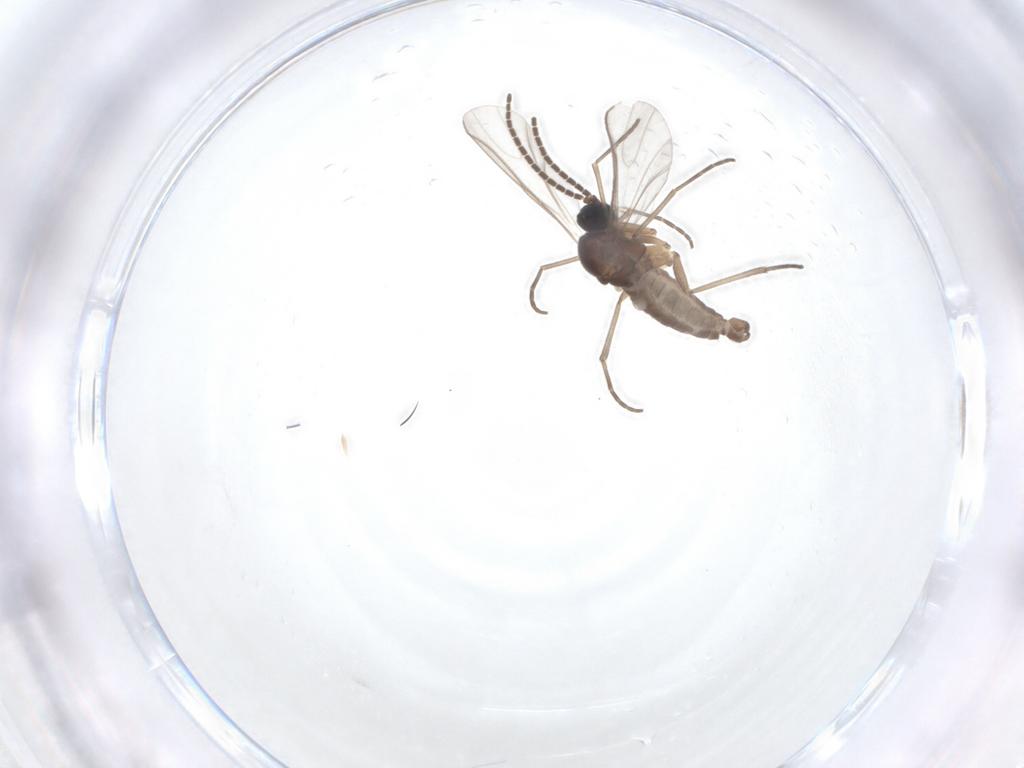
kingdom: Animalia
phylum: Arthropoda
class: Insecta
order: Diptera
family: Sciaridae
